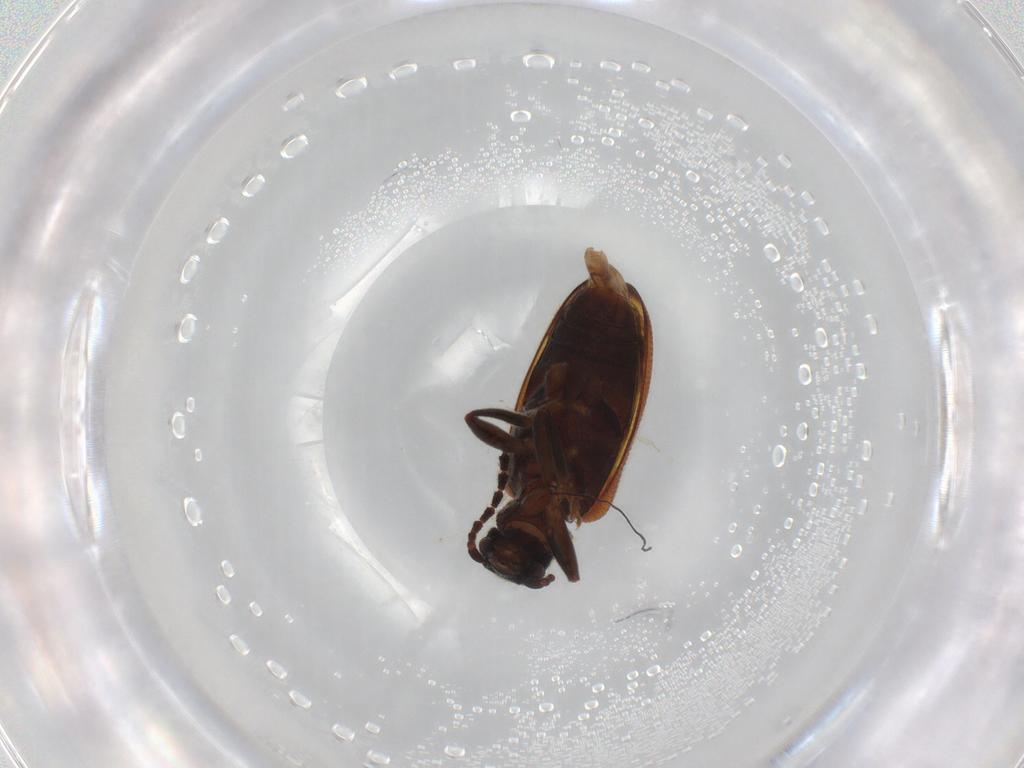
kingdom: Animalia
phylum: Arthropoda
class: Insecta
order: Coleoptera
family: Aderidae
